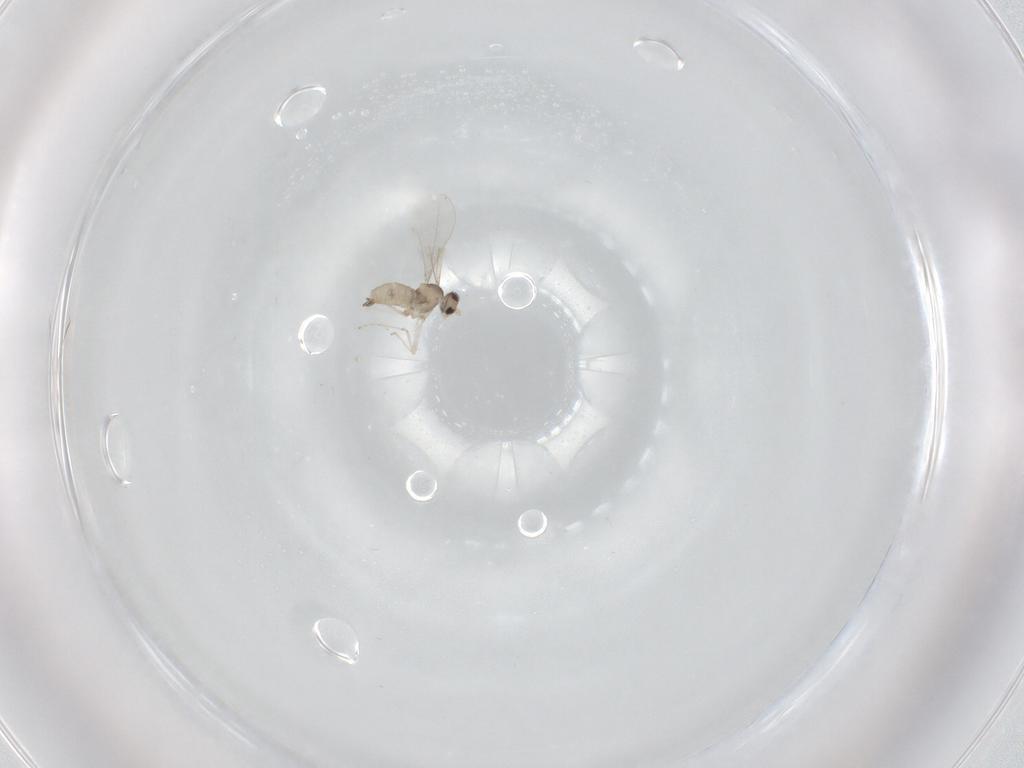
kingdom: Animalia
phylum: Arthropoda
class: Insecta
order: Diptera
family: Cecidomyiidae
